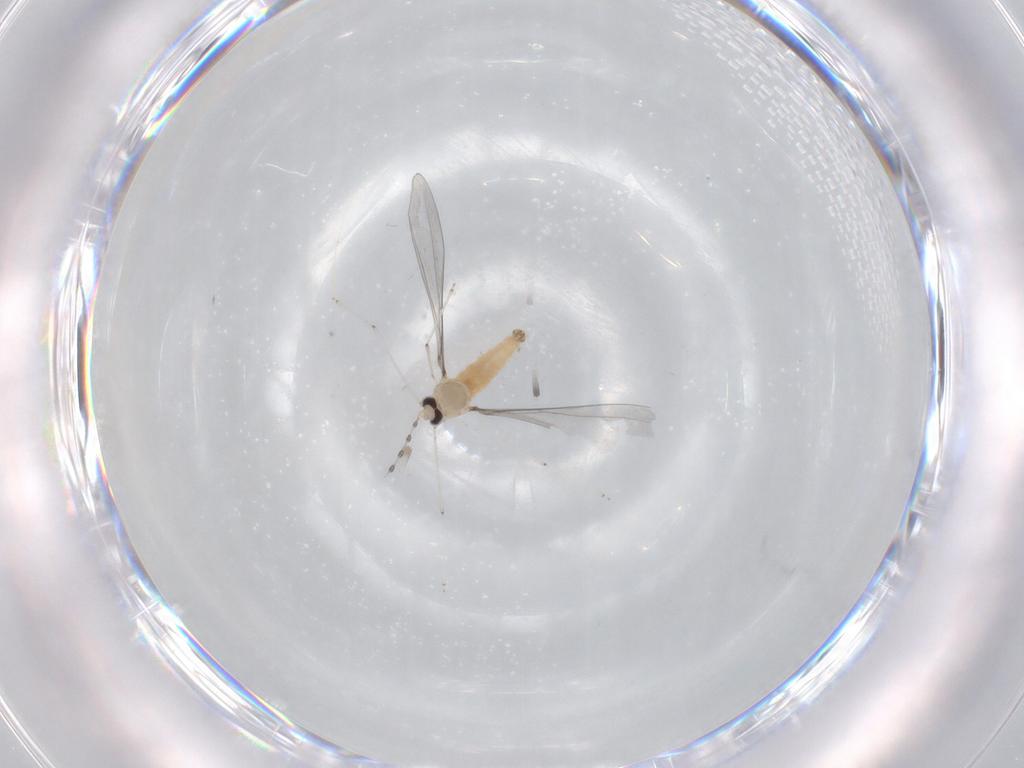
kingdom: Animalia
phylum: Arthropoda
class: Insecta
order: Diptera
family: Cecidomyiidae
